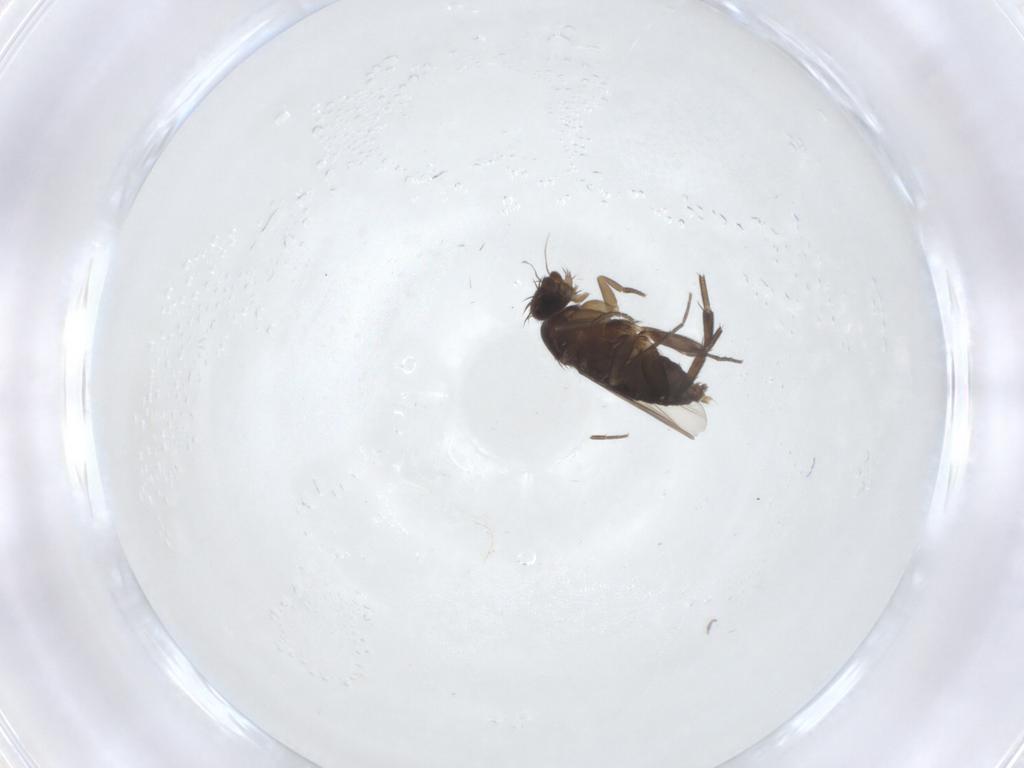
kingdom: Animalia
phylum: Arthropoda
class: Insecta
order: Diptera
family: Phoridae
